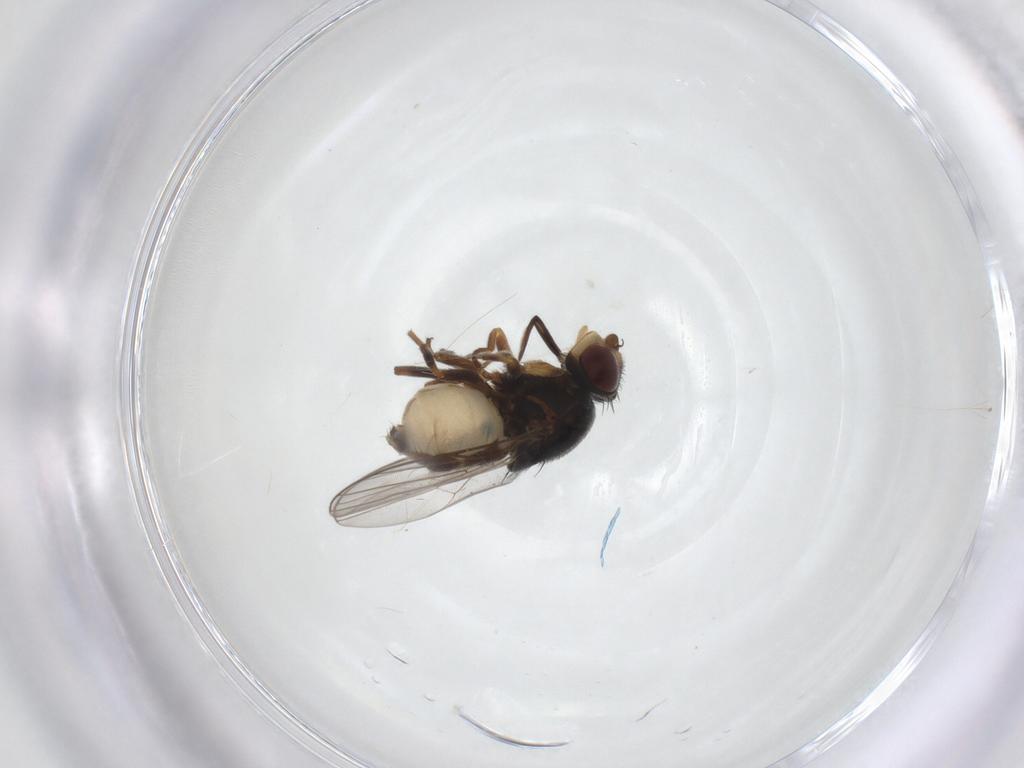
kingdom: Animalia
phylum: Arthropoda
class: Insecta
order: Diptera
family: Chloropidae
